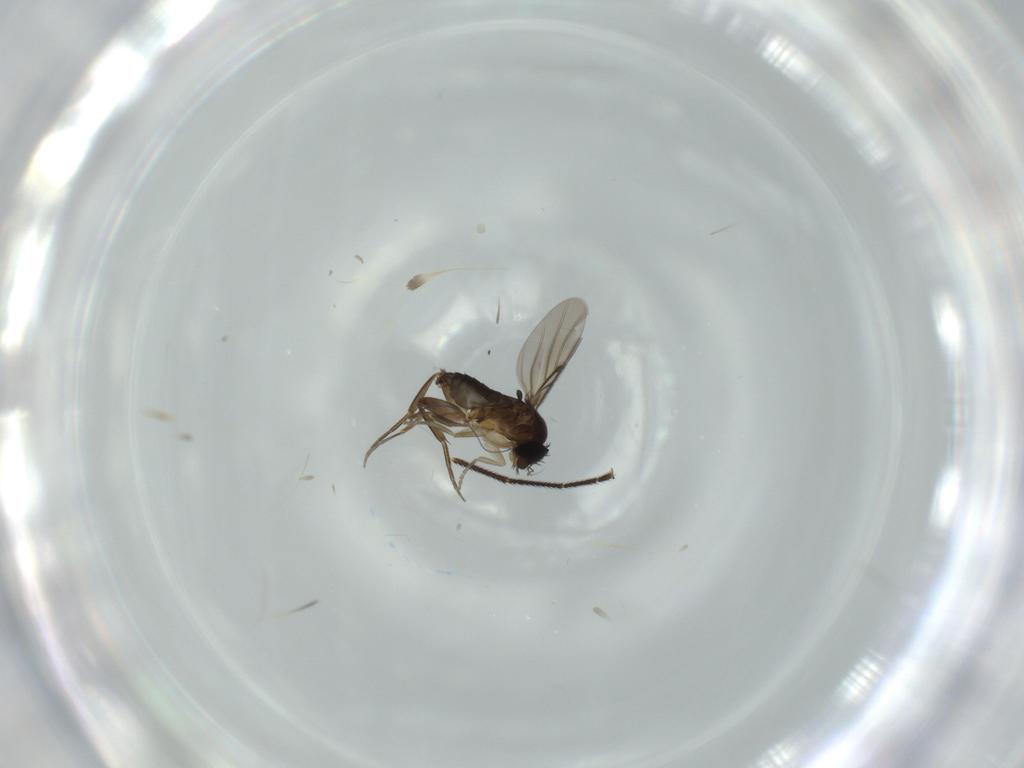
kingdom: Animalia
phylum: Arthropoda
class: Insecta
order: Diptera
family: Phoridae
